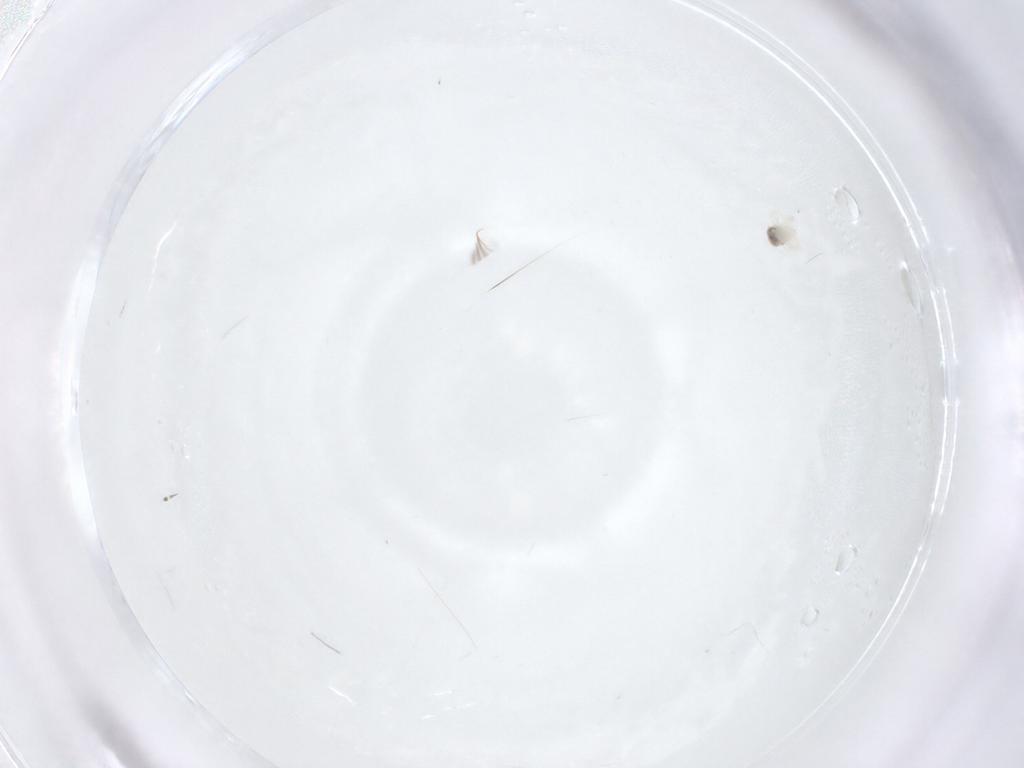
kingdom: Animalia
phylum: Arthropoda
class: Arachnida
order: Trombidiformes
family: Anystidae
